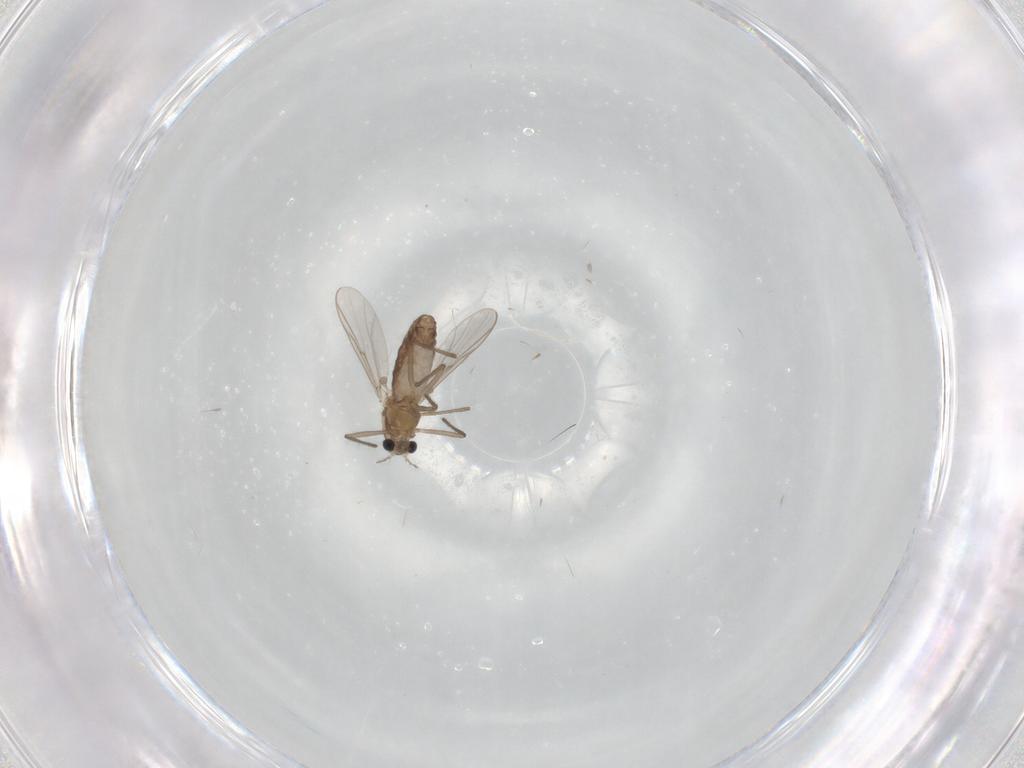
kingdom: Animalia
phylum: Arthropoda
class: Insecta
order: Diptera
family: Chironomidae
